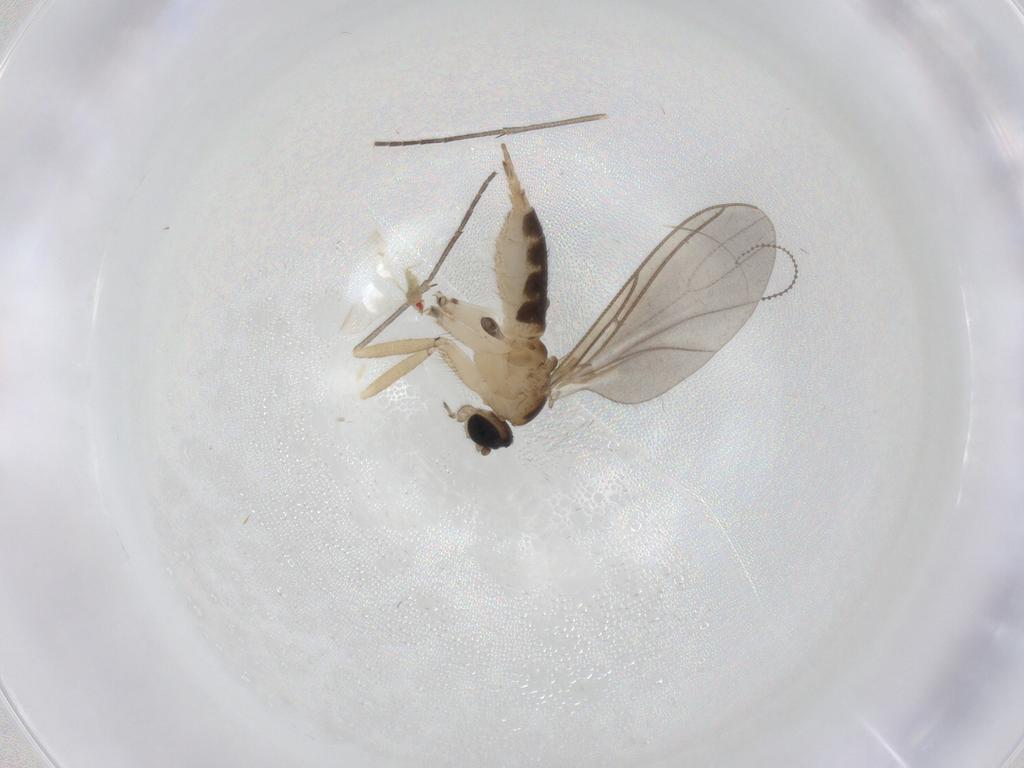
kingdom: Animalia
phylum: Arthropoda
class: Insecta
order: Diptera
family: Sciaridae
